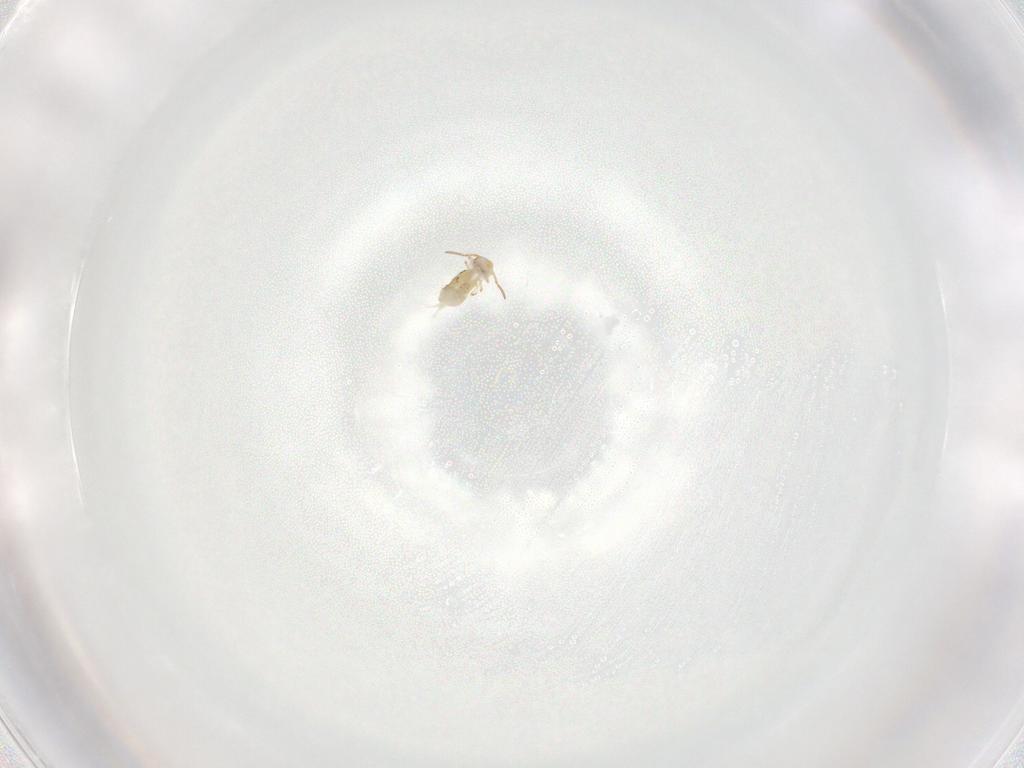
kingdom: Animalia
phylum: Arthropoda
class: Collembola
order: Symphypleona
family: Bourletiellidae
